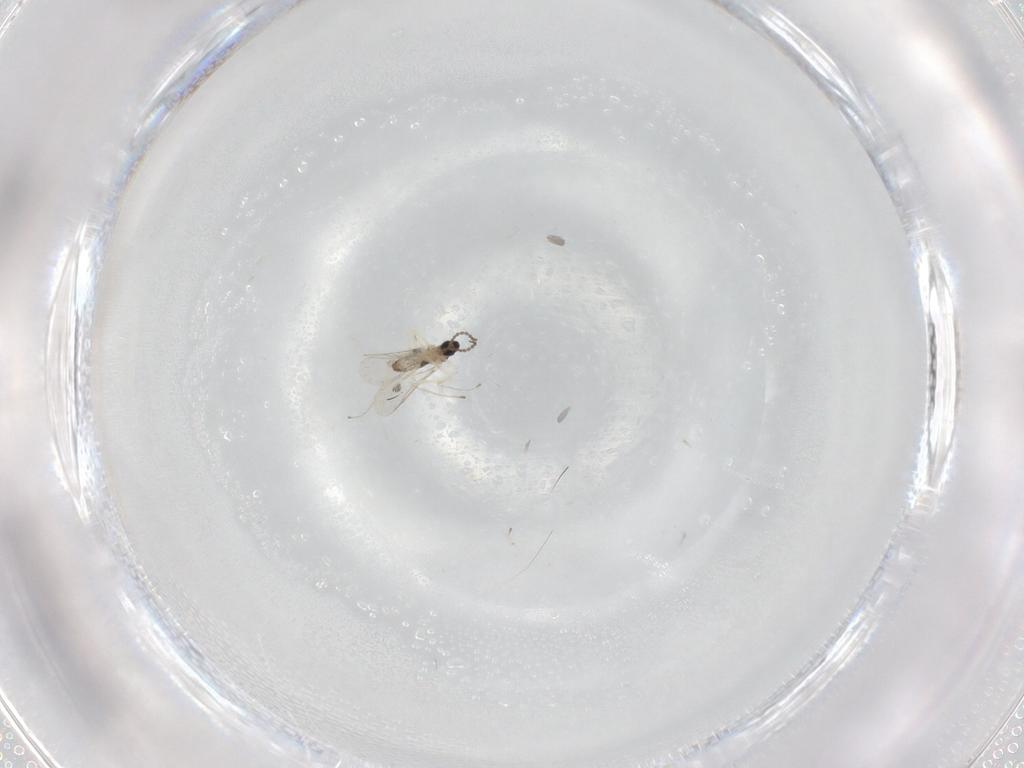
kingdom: Animalia
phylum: Arthropoda
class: Insecta
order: Diptera
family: Cecidomyiidae
